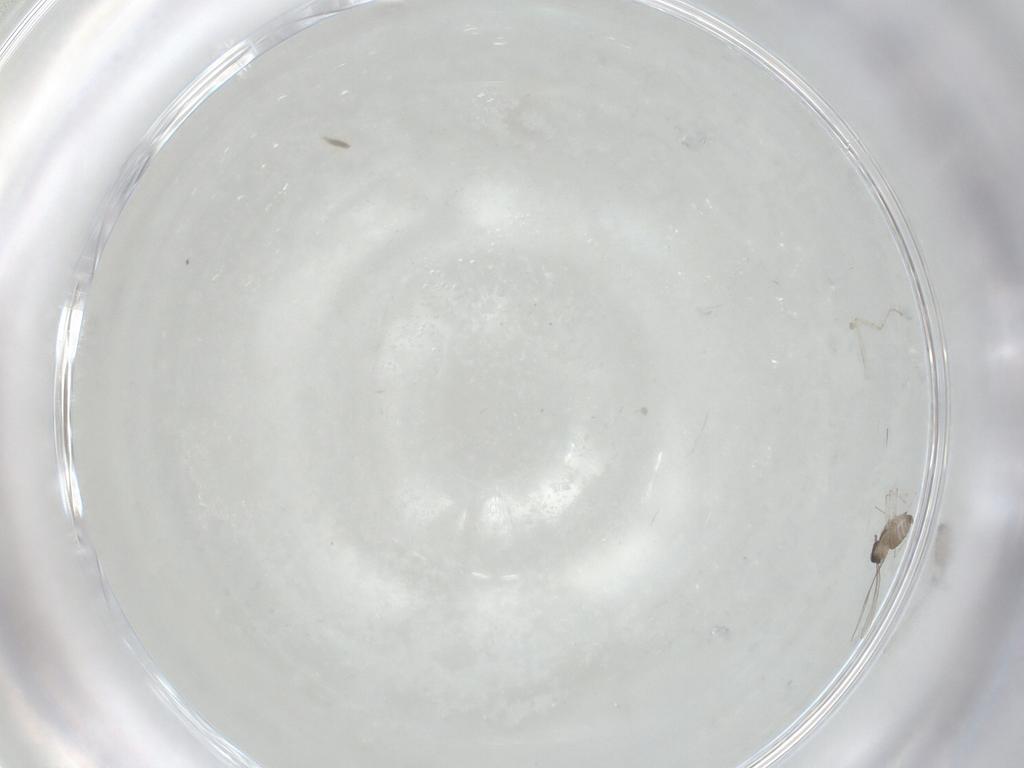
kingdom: Animalia
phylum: Arthropoda
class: Insecta
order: Diptera
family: Cecidomyiidae
